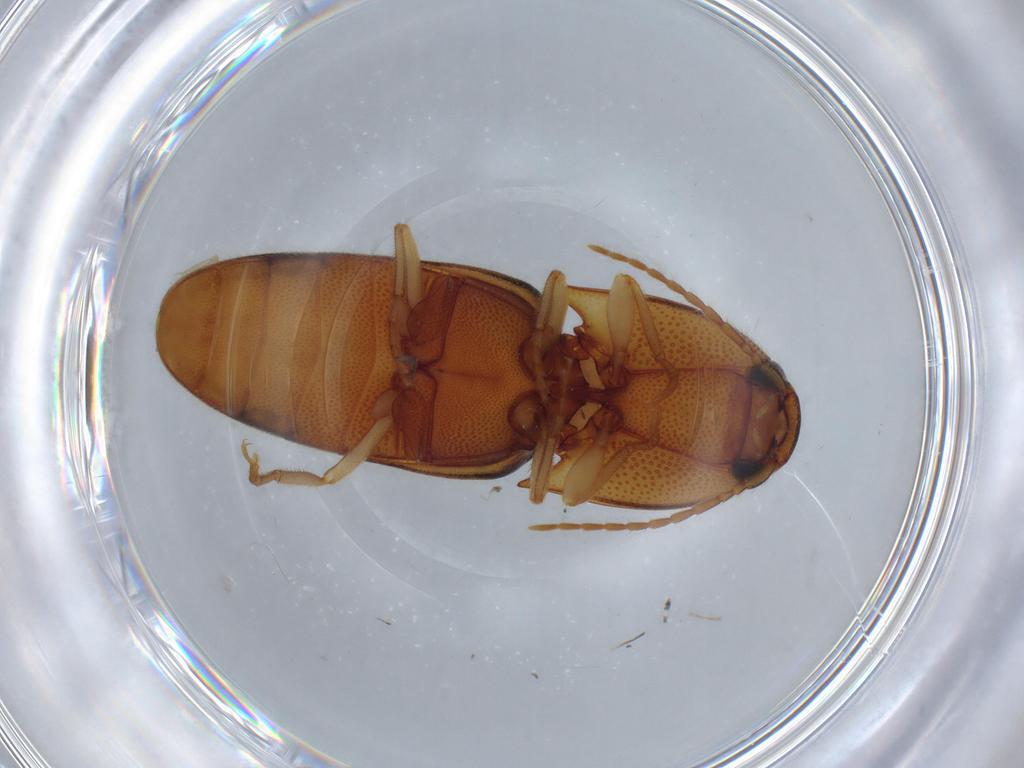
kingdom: Animalia
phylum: Arthropoda
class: Insecta
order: Coleoptera
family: Elateridae
